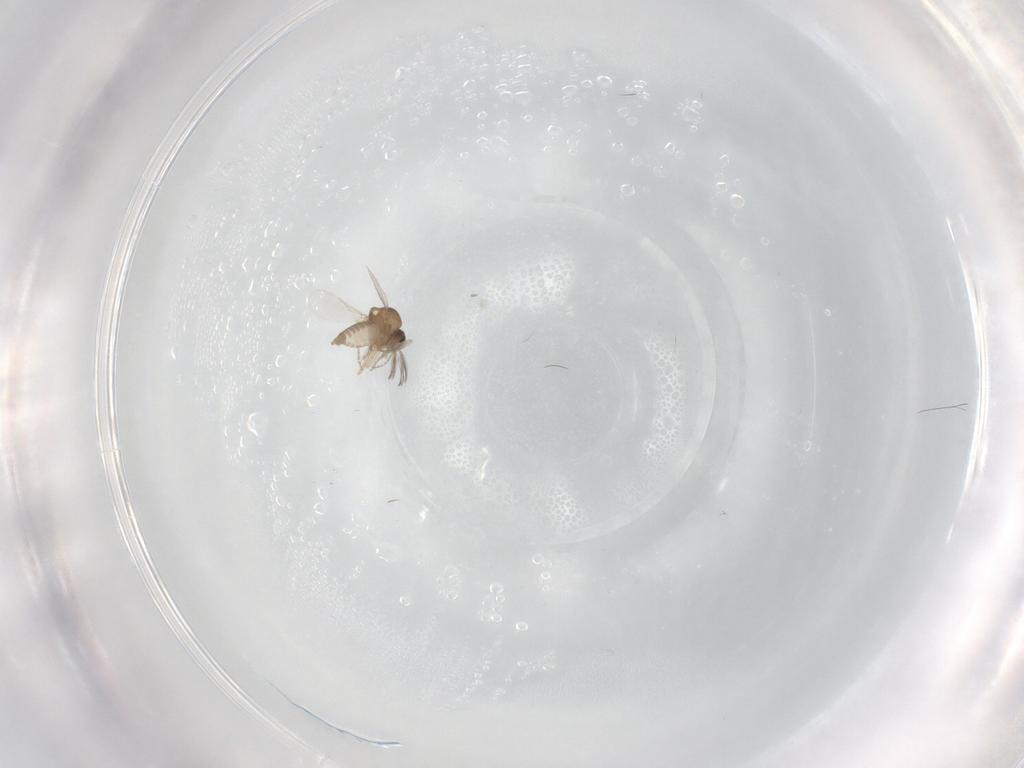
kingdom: Animalia
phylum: Arthropoda
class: Insecta
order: Diptera
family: Ceratopogonidae
